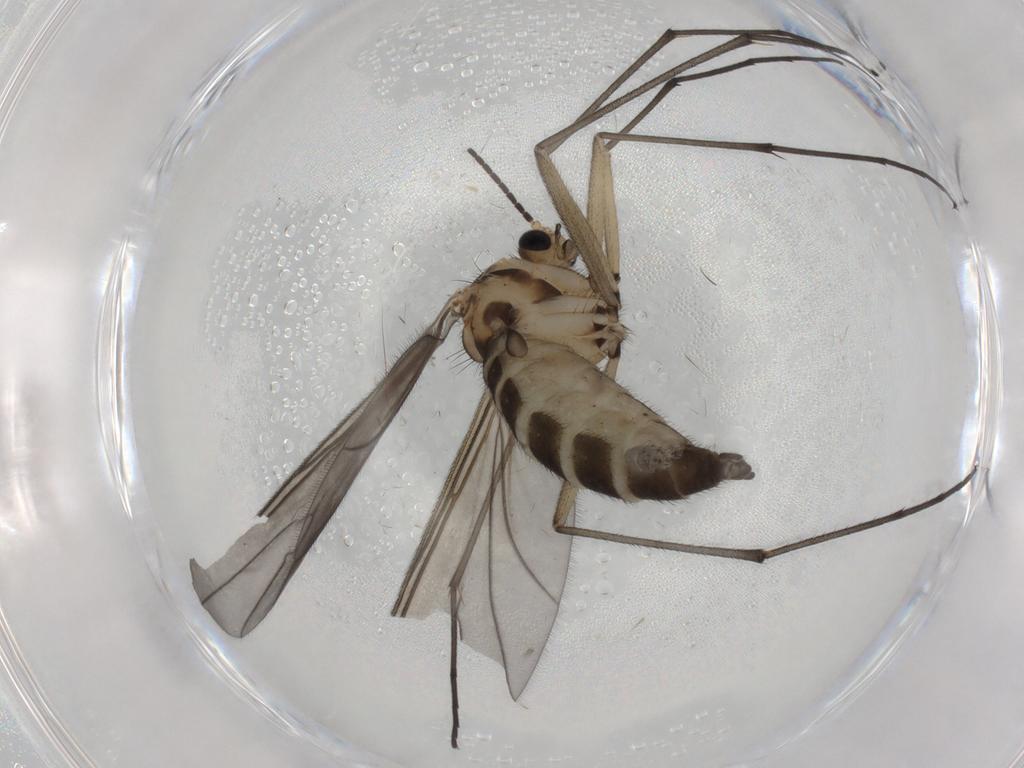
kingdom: Animalia
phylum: Arthropoda
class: Insecta
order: Diptera
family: Sciaridae
